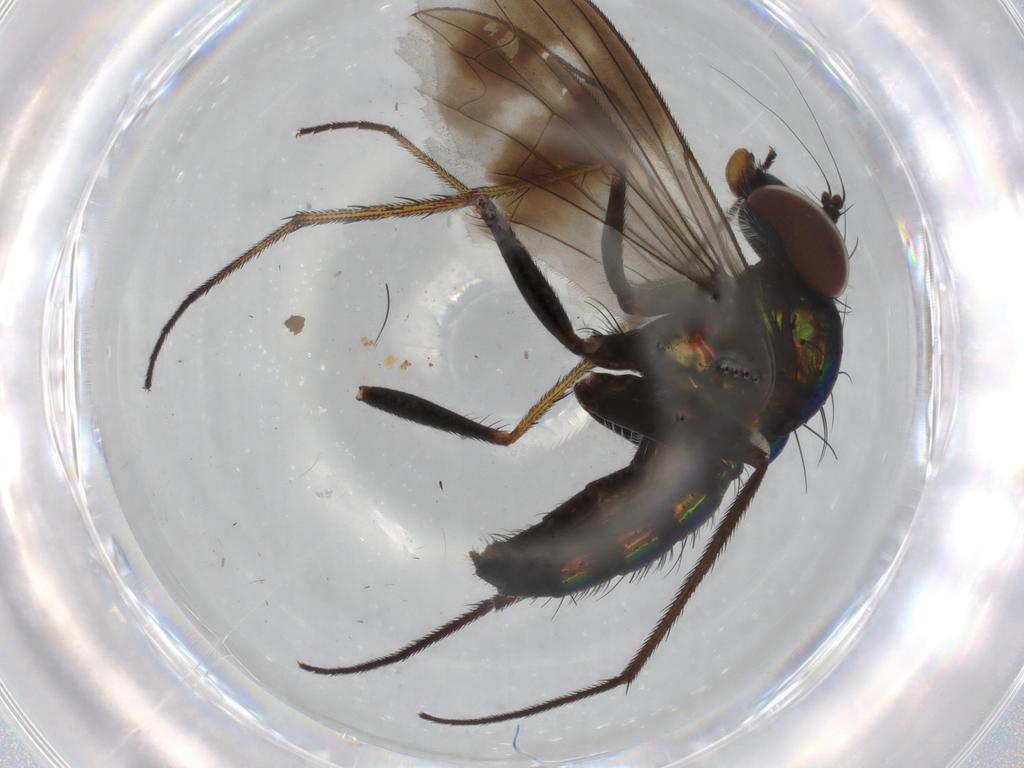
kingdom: Animalia
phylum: Arthropoda
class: Insecta
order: Diptera
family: Dolichopodidae
